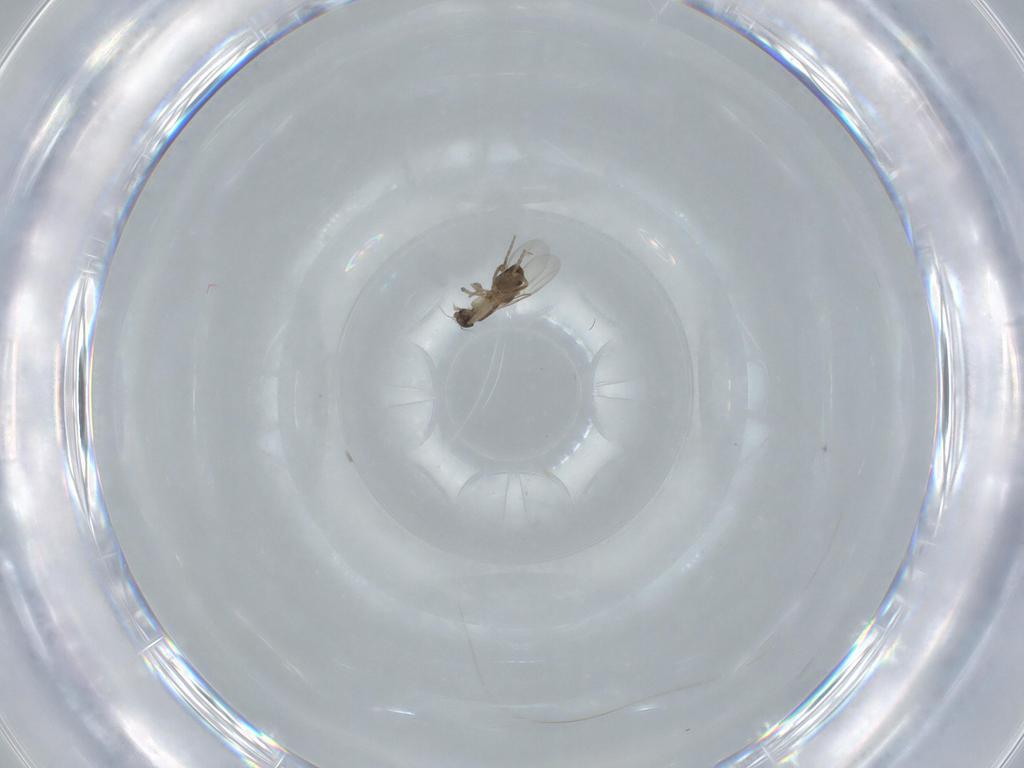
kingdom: Animalia
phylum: Arthropoda
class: Insecta
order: Diptera
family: Phoridae
